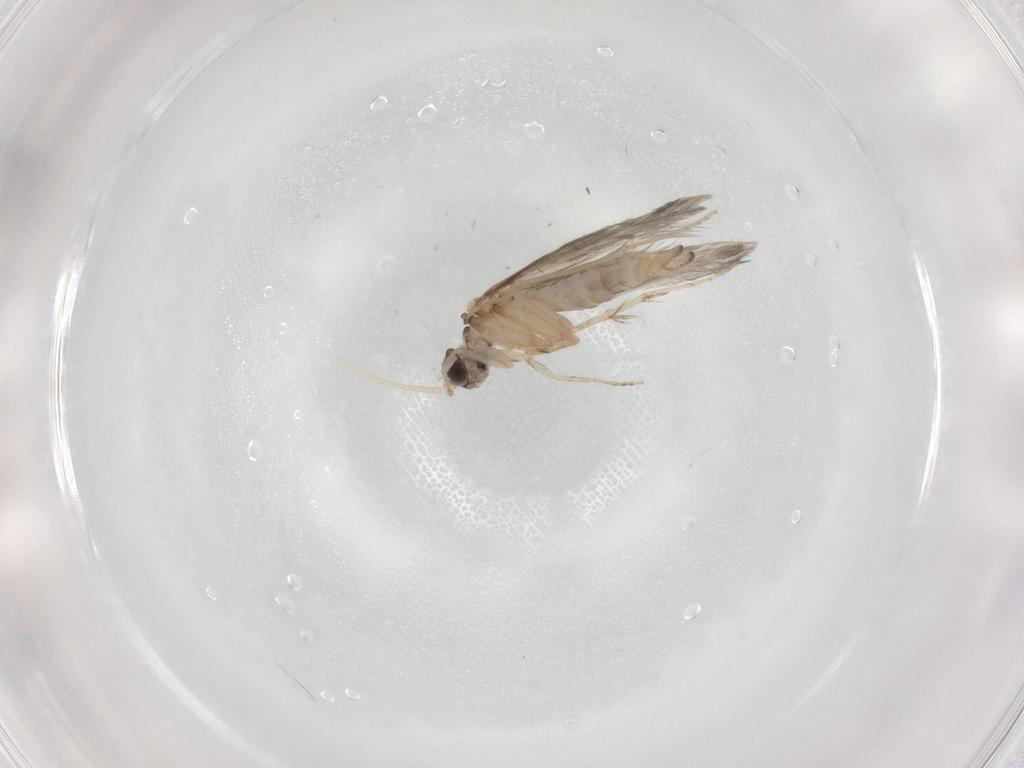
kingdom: Animalia
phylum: Arthropoda
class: Insecta
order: Trichoptera
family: Hydroptilidae
